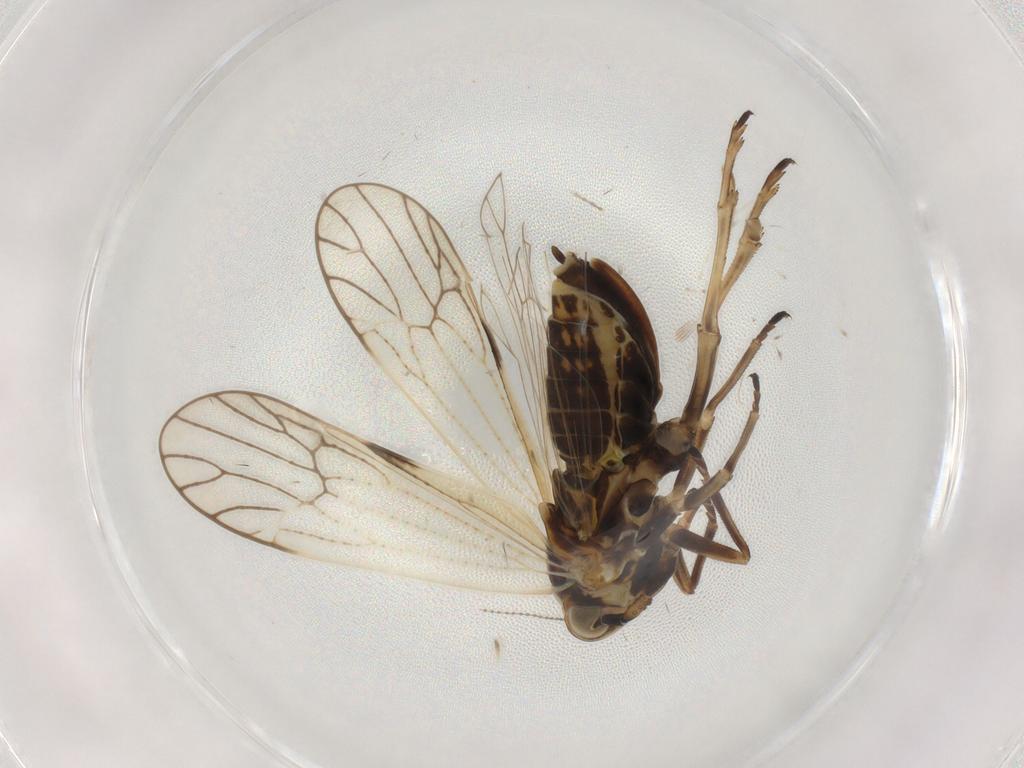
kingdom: Animalia
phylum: Arthropoda
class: Insecta
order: Hemiptera
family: Delphacidae
